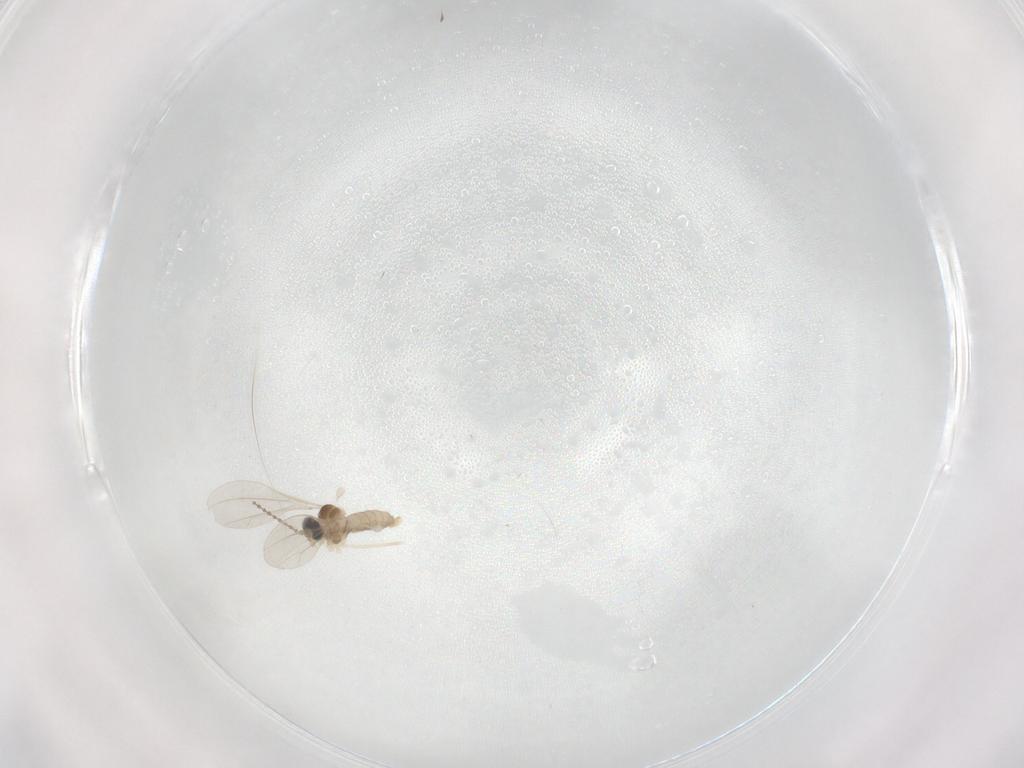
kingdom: Animalia
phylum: Arthropoda
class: Insecta
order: Diptera
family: Cecidomyiidae
